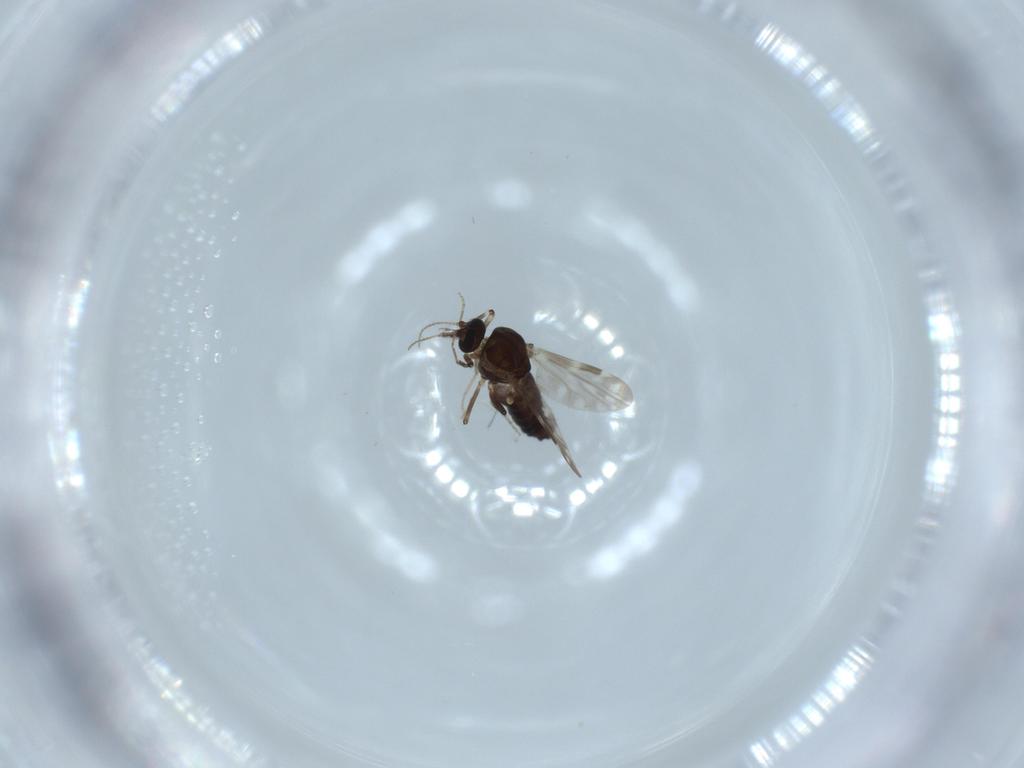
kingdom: Animalia
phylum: Arthropoda
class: Insecta
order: Diptera
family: Ceratopogonidae
